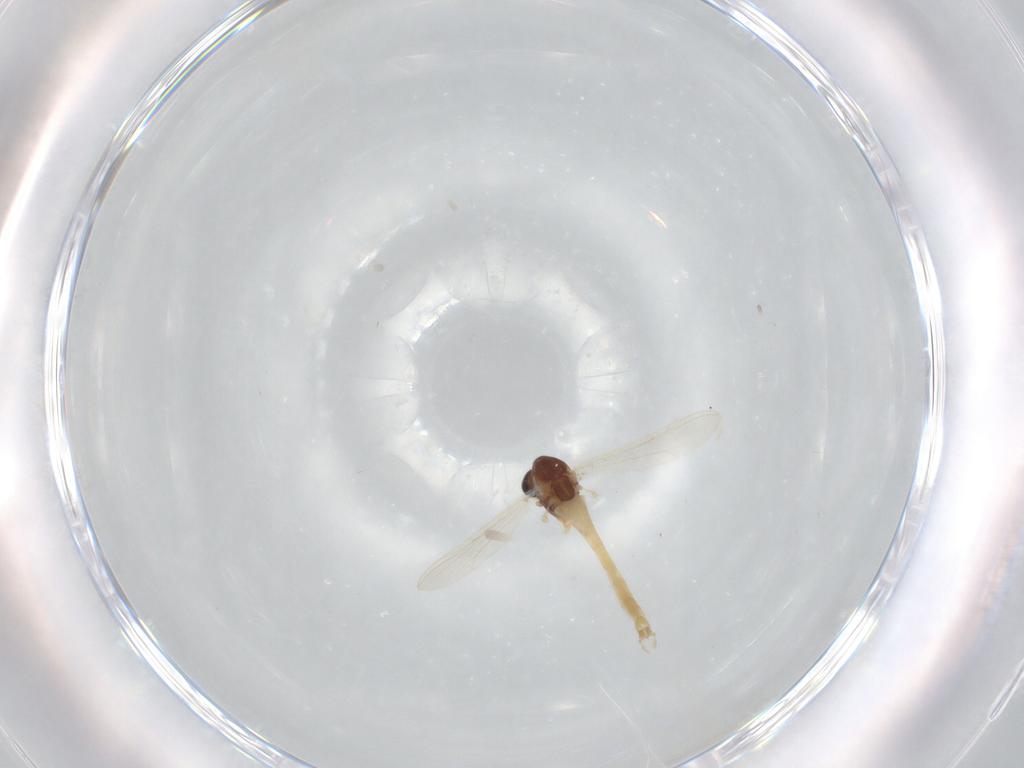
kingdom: Animalia
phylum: Arthropoda
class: Insecta
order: Diptera
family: Chironomidae
